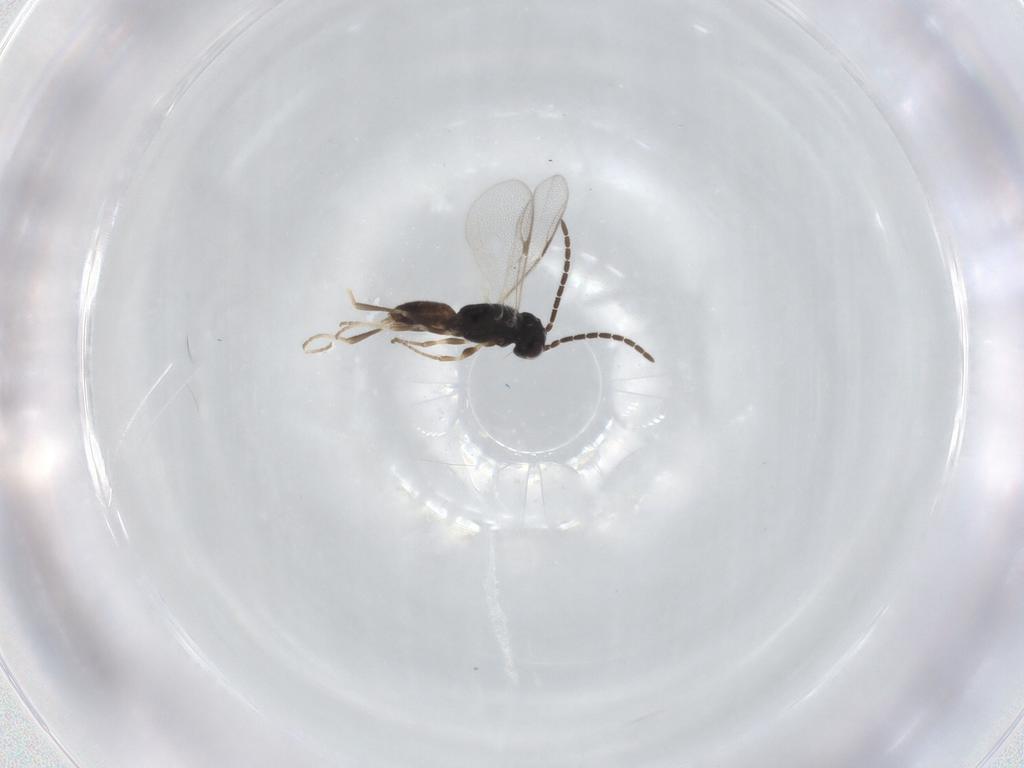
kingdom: Animalia
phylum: Arthropoda
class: Insecta
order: Hymenoptera
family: Dryinidae
